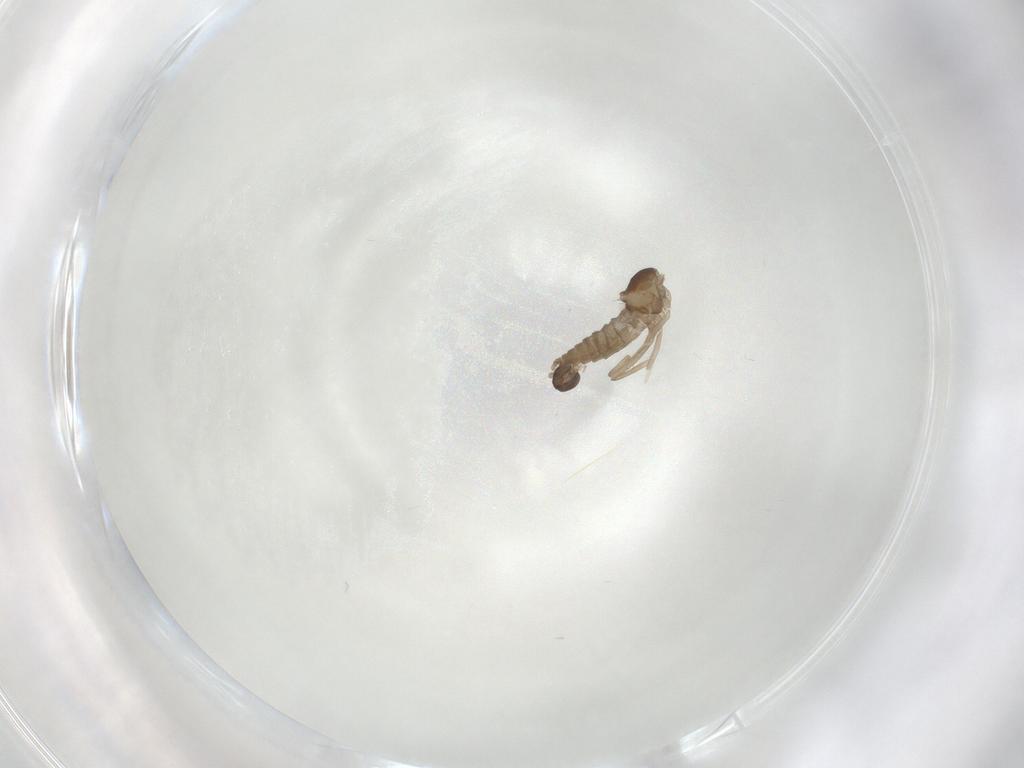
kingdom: Animalia
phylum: Arthropoda
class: Insecta
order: Diptera
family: Cecidomyiidae
